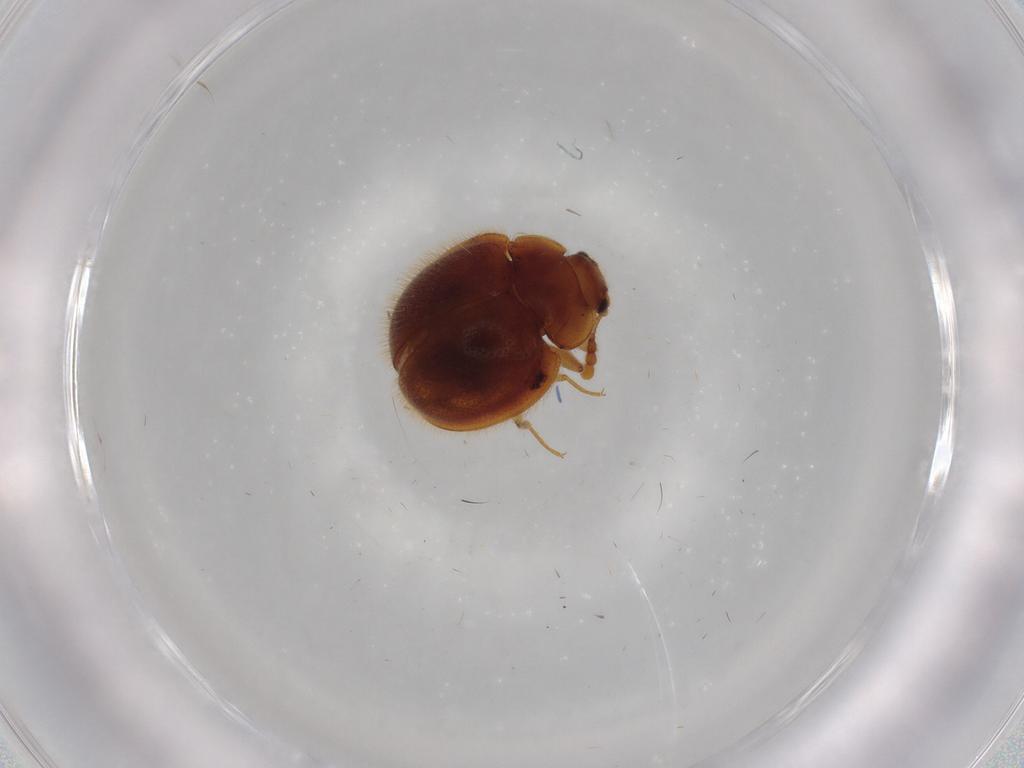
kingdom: Animalia
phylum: Arthropoda
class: Insecta
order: Coleoptera
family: Anamorphidae
